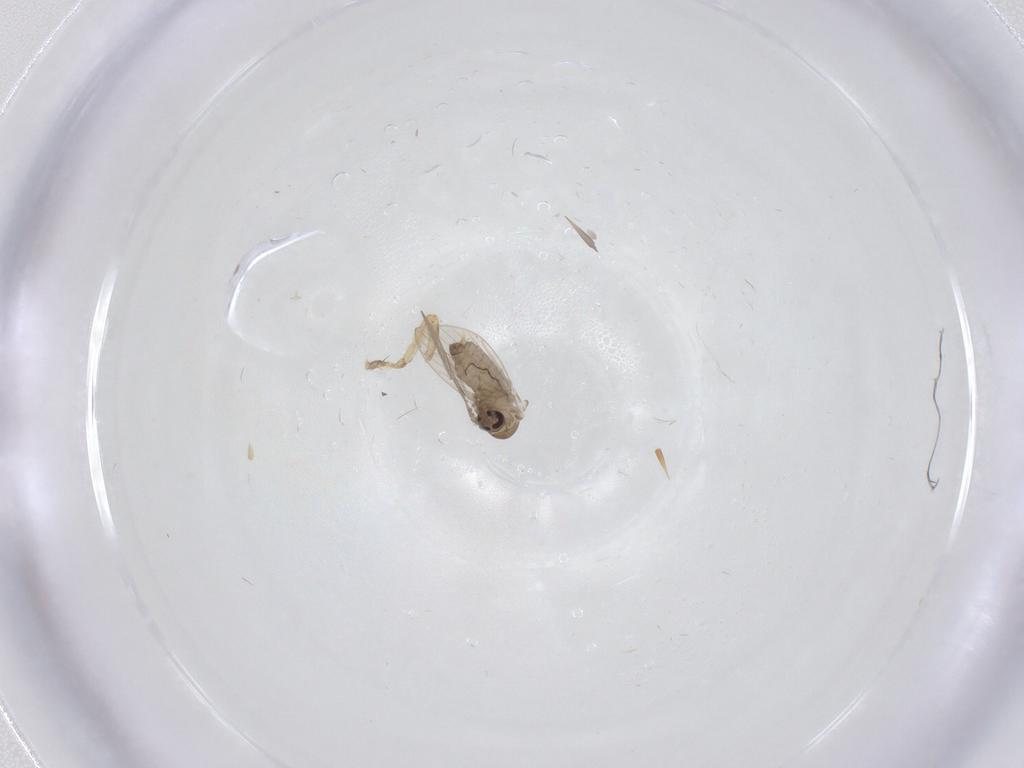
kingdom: Animalia
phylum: Arthropoda
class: Insecta
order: Diptera
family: Psychodidae
